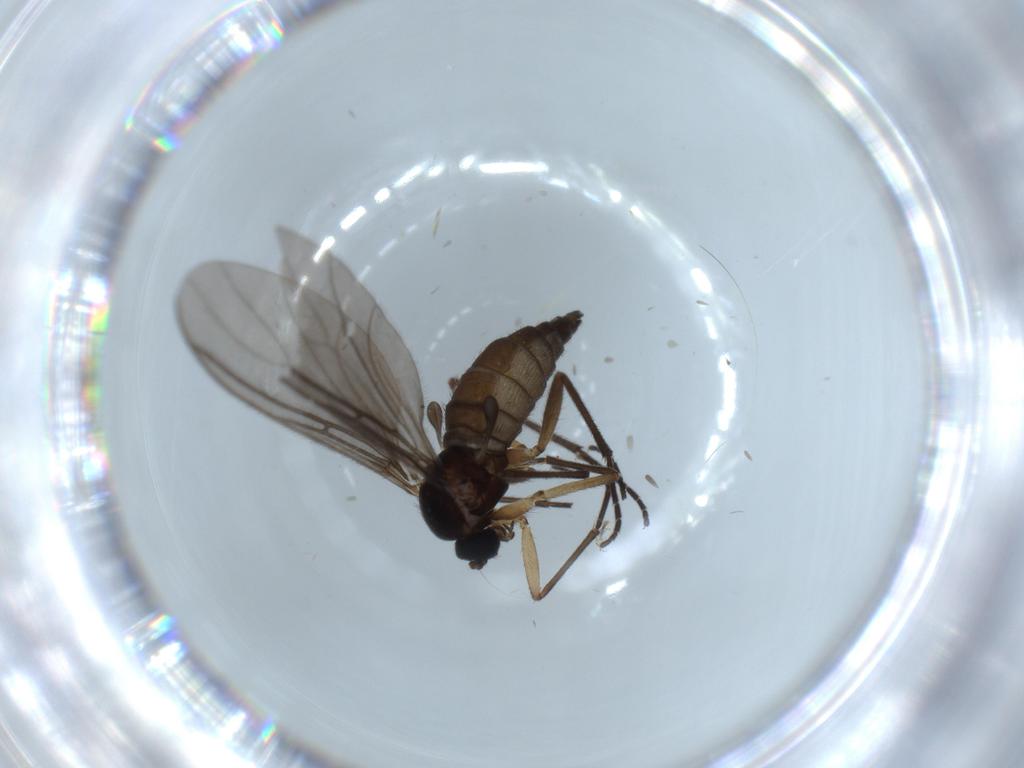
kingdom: Animalia
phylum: Arthropoda
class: Insecta
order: Diptera
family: Sciaridae
